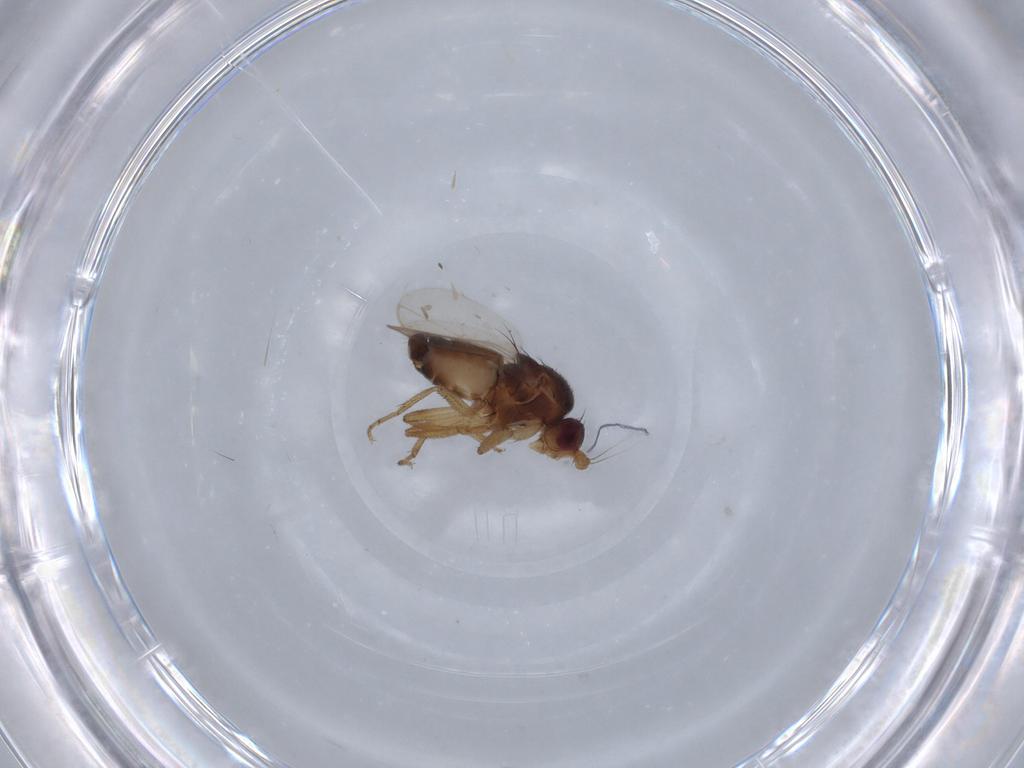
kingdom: Animalia
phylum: Arthropoda
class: Insecta
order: Diptera
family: Sphaeroceridae
